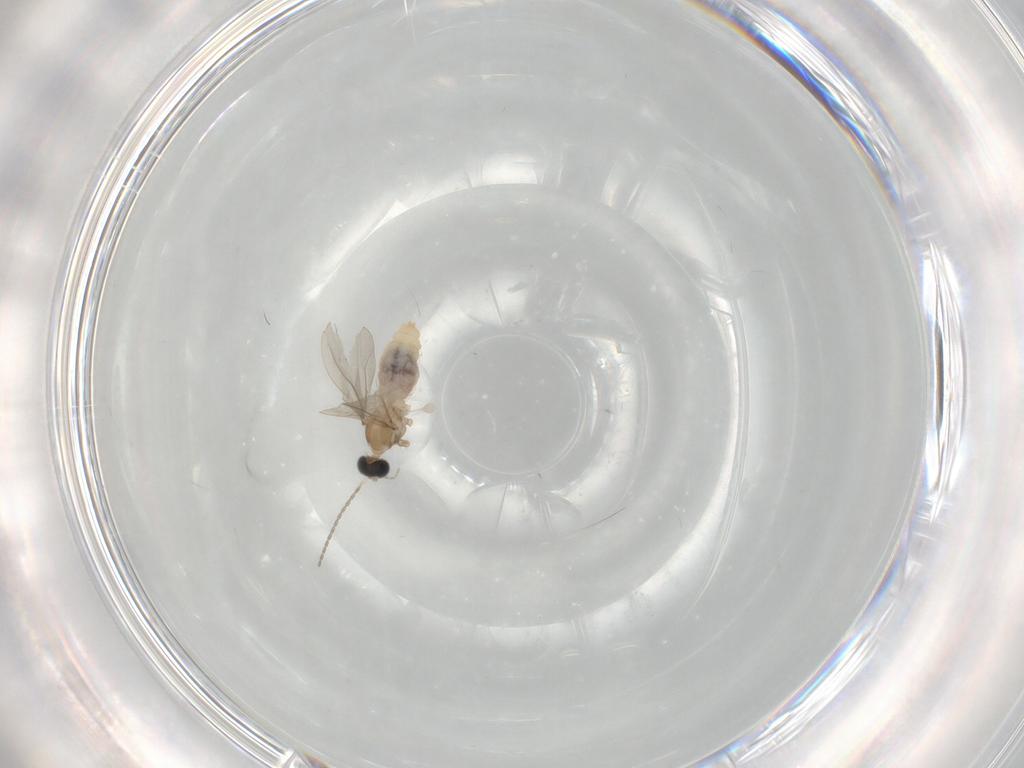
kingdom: Animalia
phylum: Arthropoda
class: Insecta
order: Diptera
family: Cecidomyiidae
